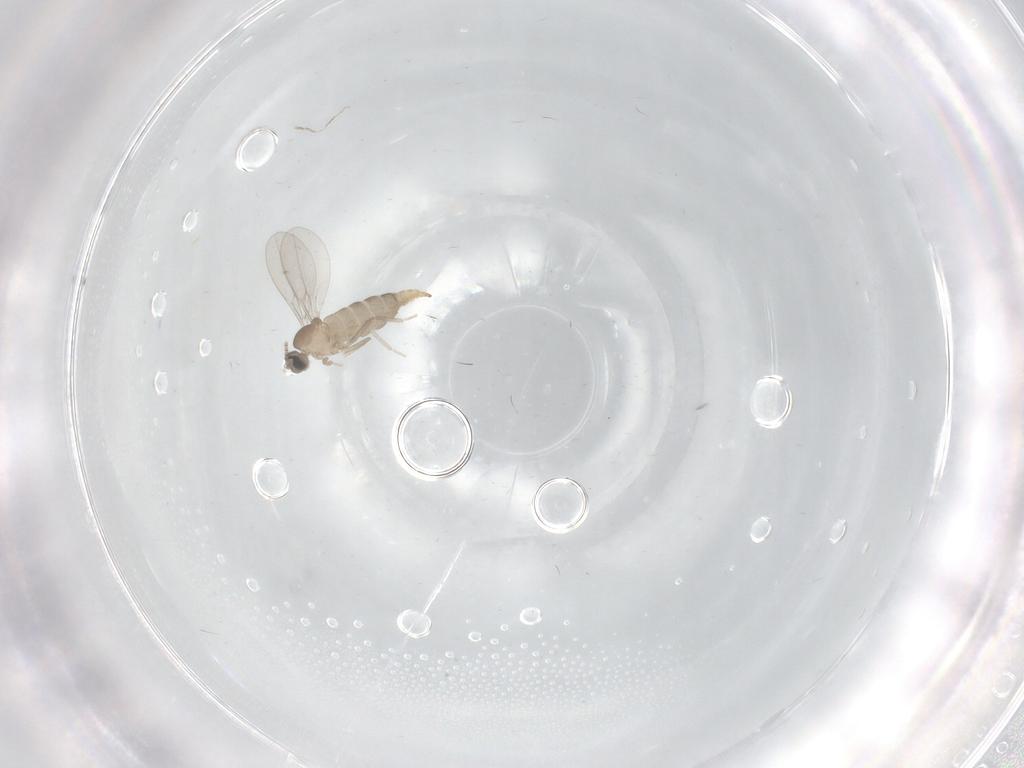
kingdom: Animalia
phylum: Arthropoda
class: Insecta
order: Diptera
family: Cecidomyiidae
